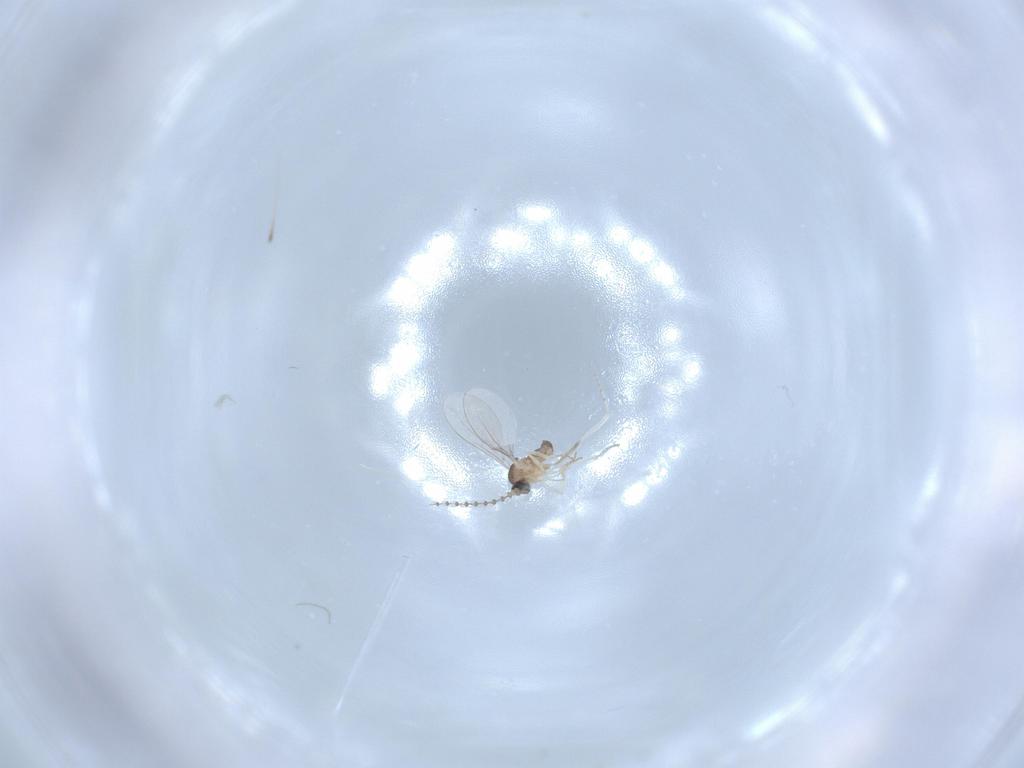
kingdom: Animalia
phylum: Arthropoda
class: Insecta
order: Diptera
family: Cecidomyiidae
